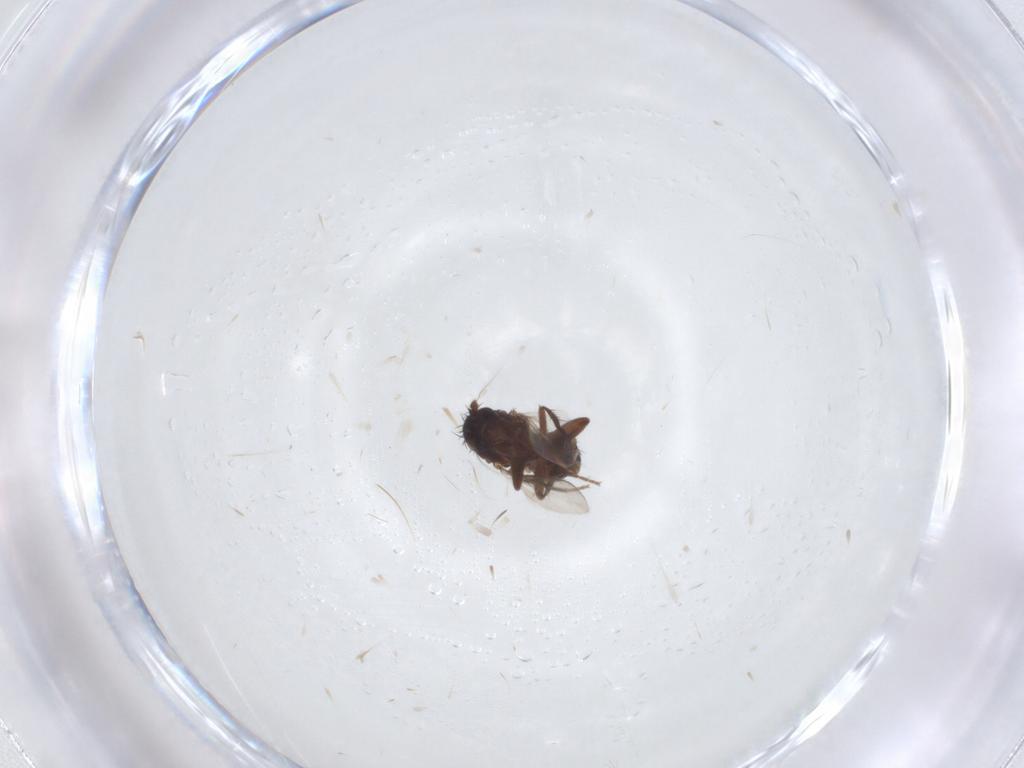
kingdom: Animalia
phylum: Arthropoda
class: Insecta
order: Diptera
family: Sphaeroceridae
